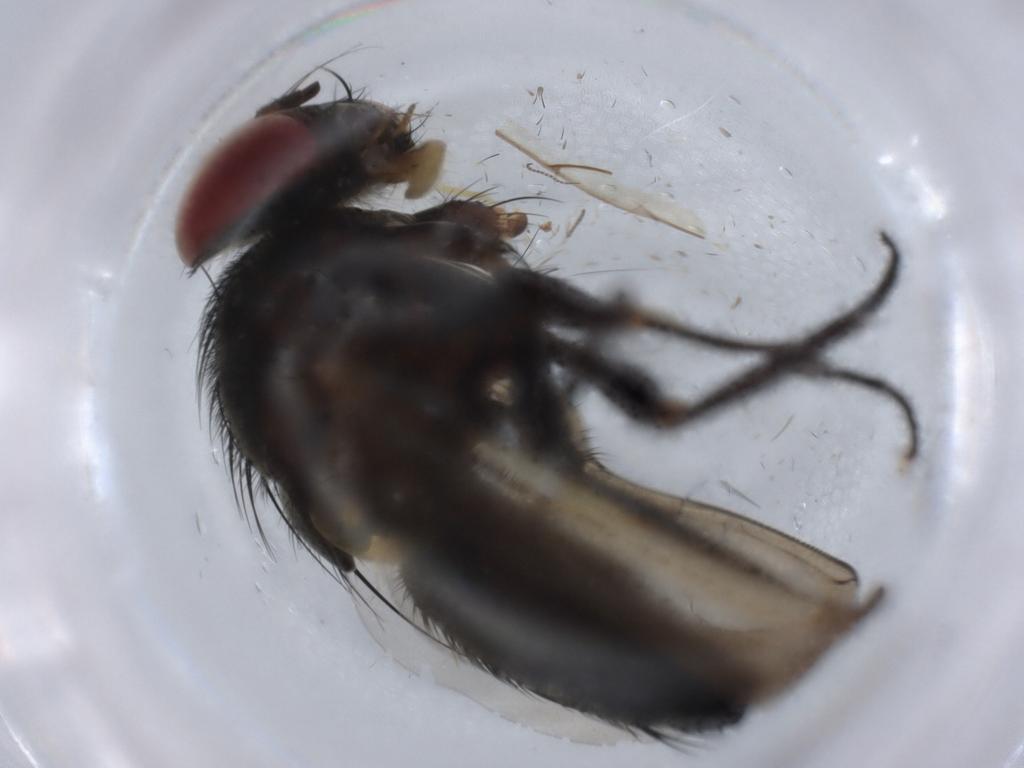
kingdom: Animalia
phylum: Arthropoda
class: Insecta
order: Diptera
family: Tachinidae
